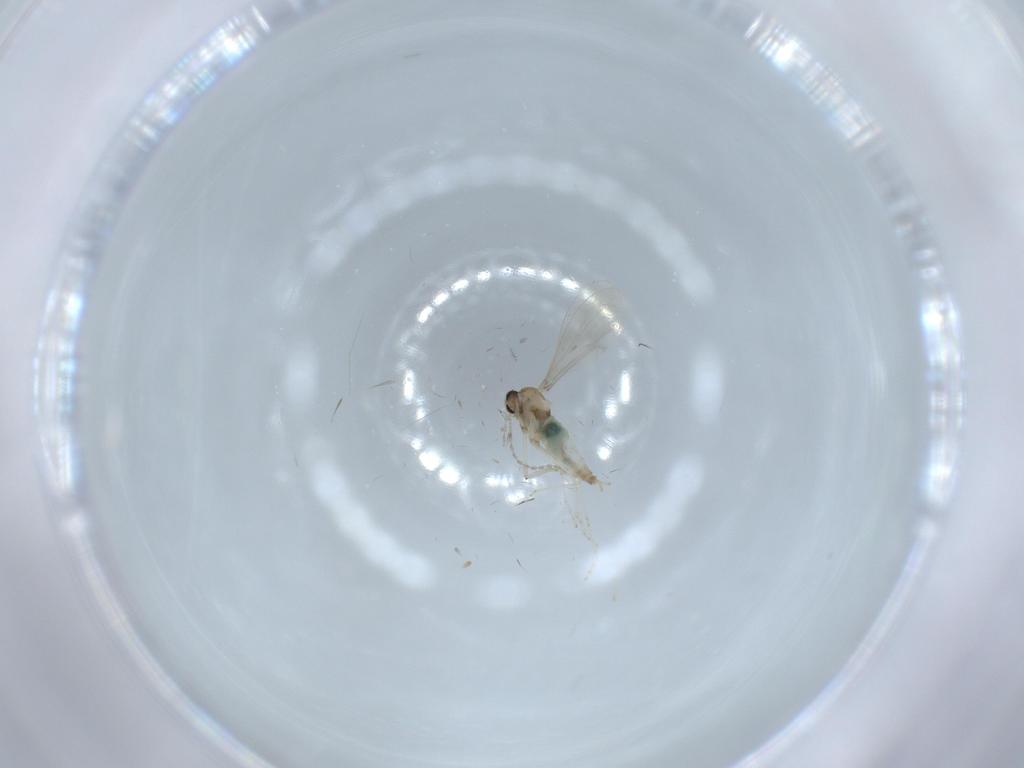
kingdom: Animalia
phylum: Arthropoda
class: Insecta
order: Diptera
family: Cecidomyiidae
